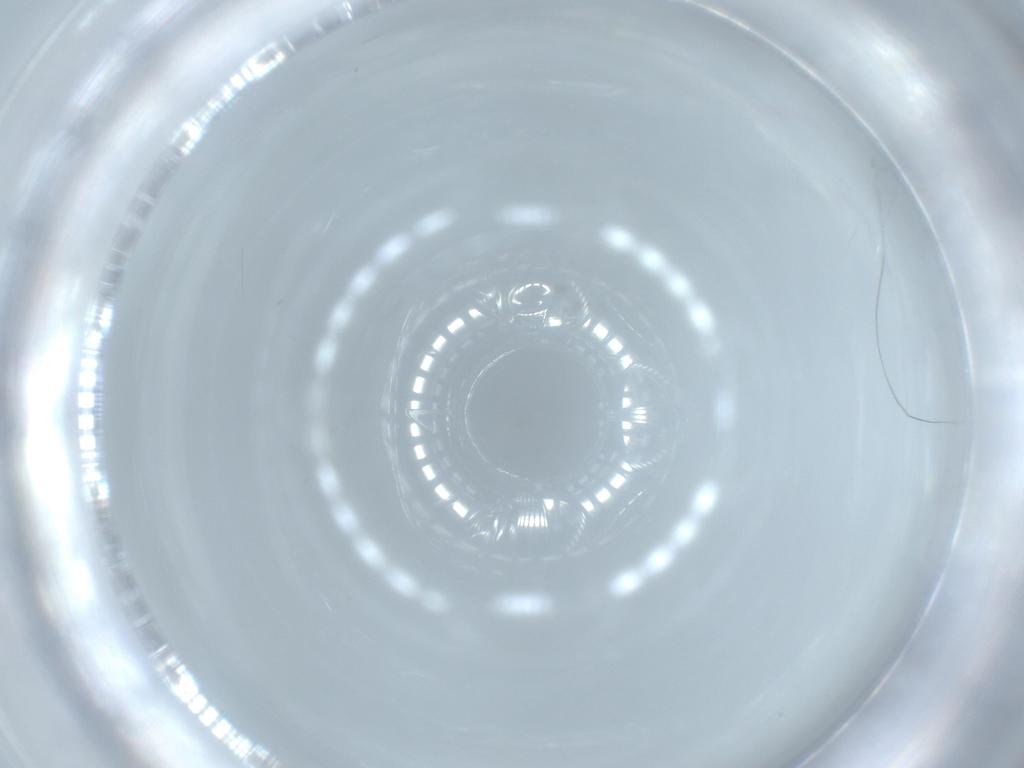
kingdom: Animalia
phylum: Arthropoda
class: Insecta
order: Psocodea
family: Liposcelididae
